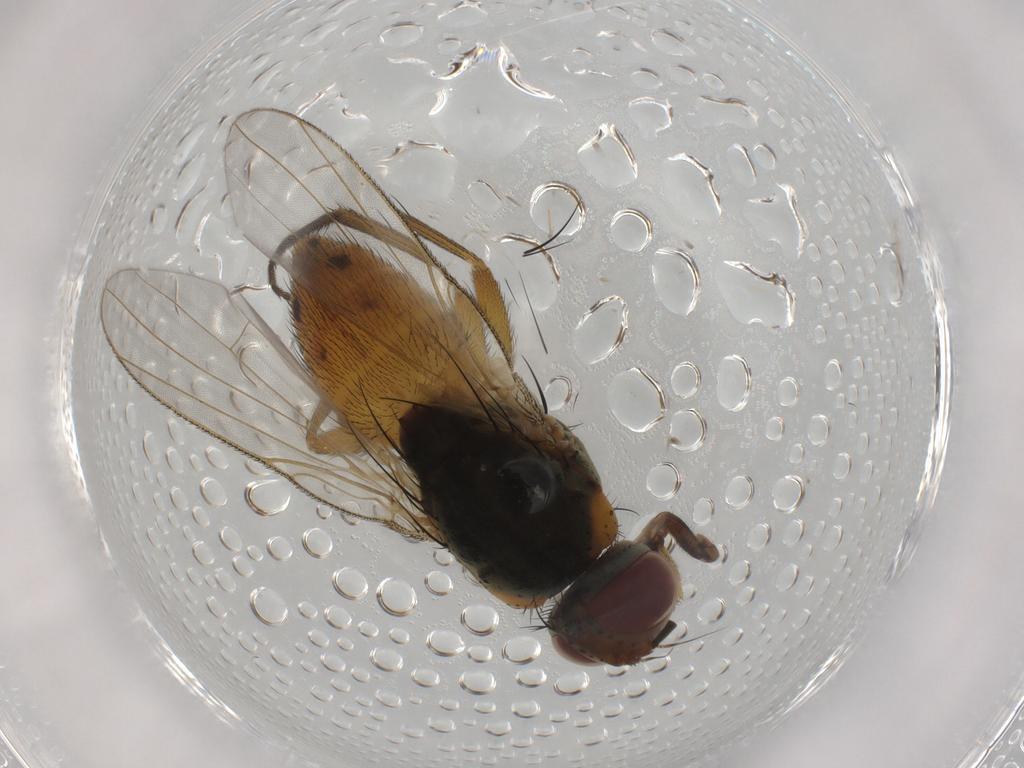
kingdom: Animalia
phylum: Arthropoda
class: Insecta
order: Diptera
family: Muscidae
